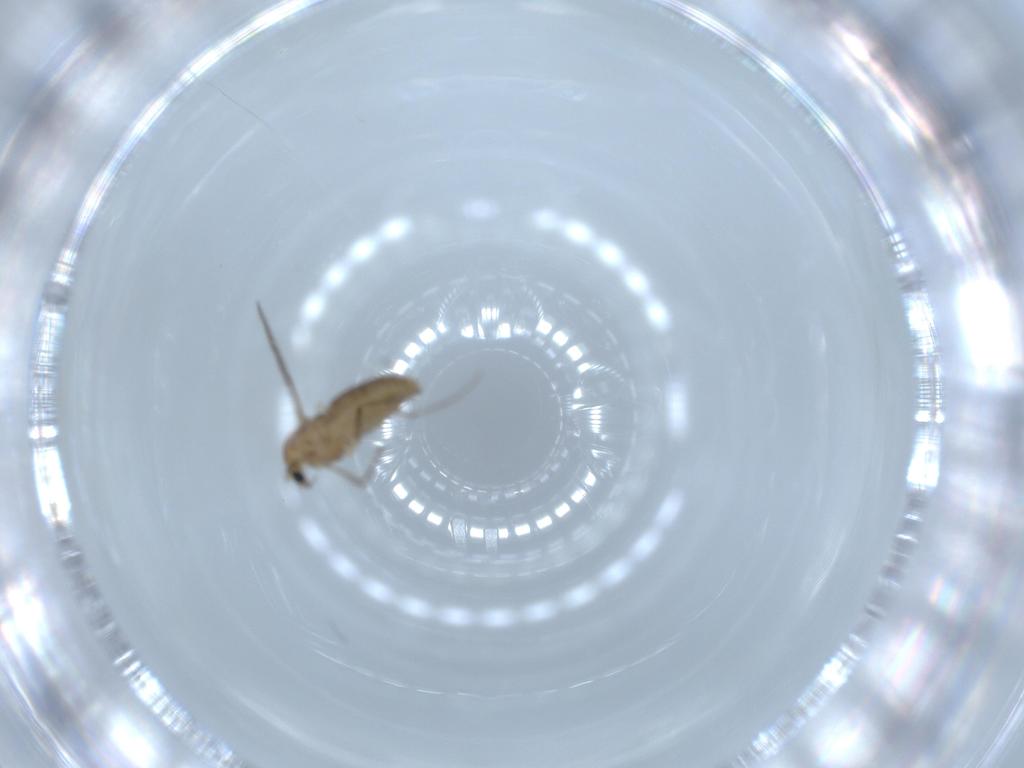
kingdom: Animalia
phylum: Arthropoda
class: Insecta
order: Diptera
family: Chironomidae
